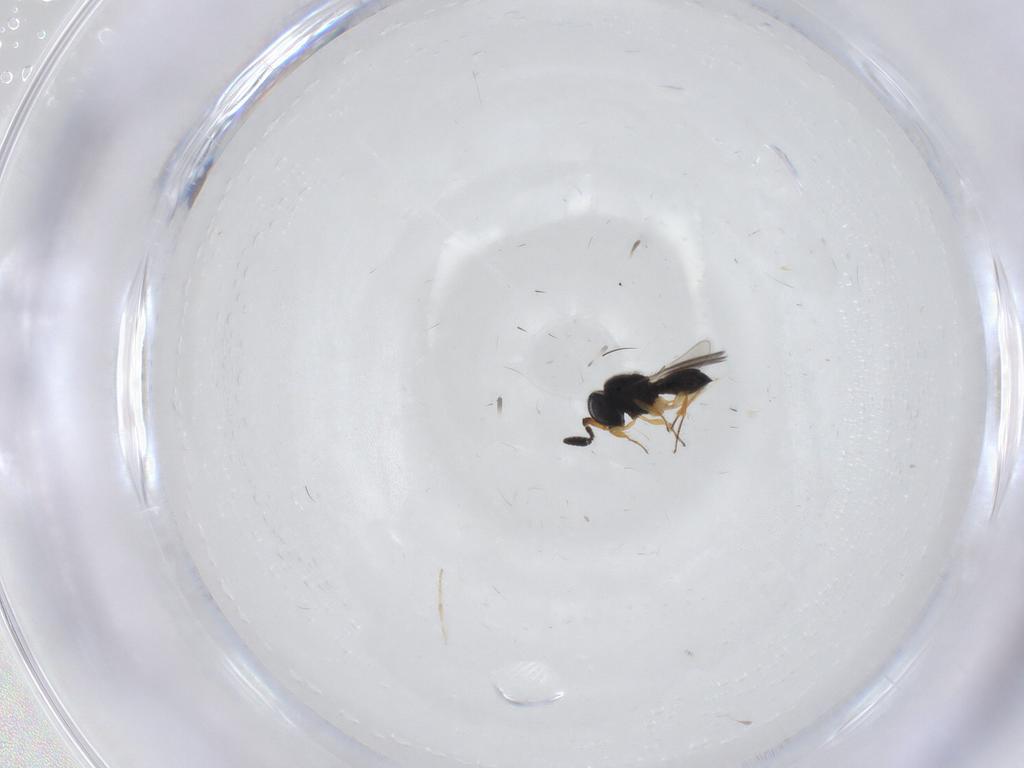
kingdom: Animalia
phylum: Arthropoda
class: Insecta
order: Hymenoptera
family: Scelionidae
